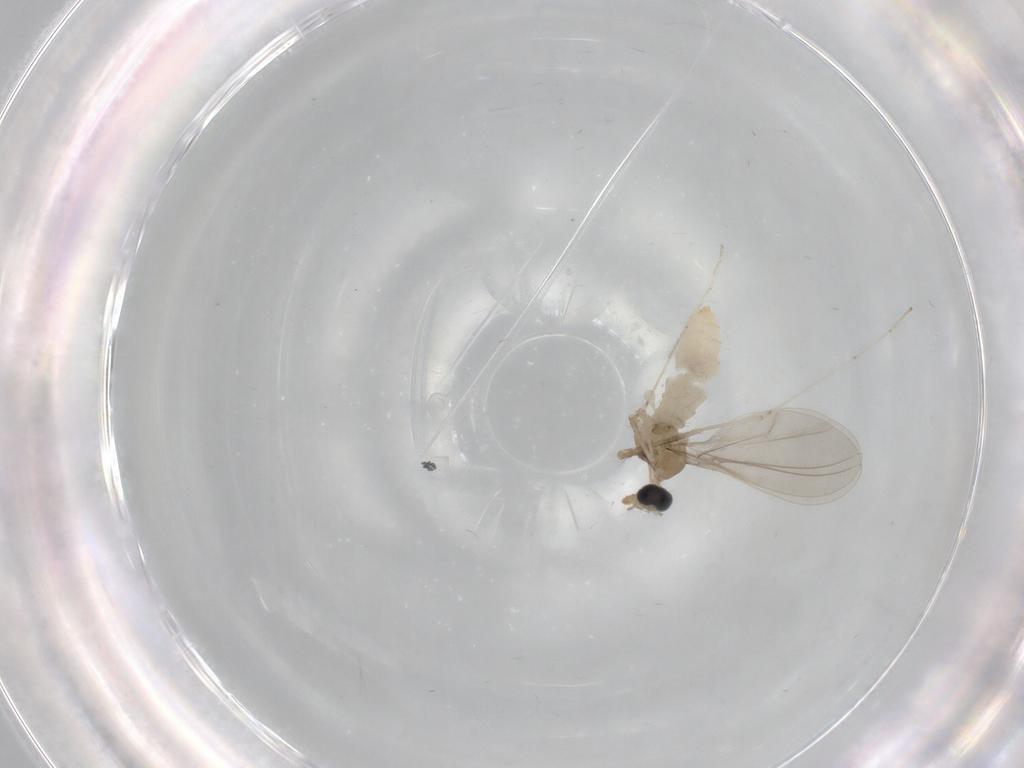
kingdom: Animalia
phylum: Arthropoda
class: Insecta
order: Diptera
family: Cecidomyiidae
